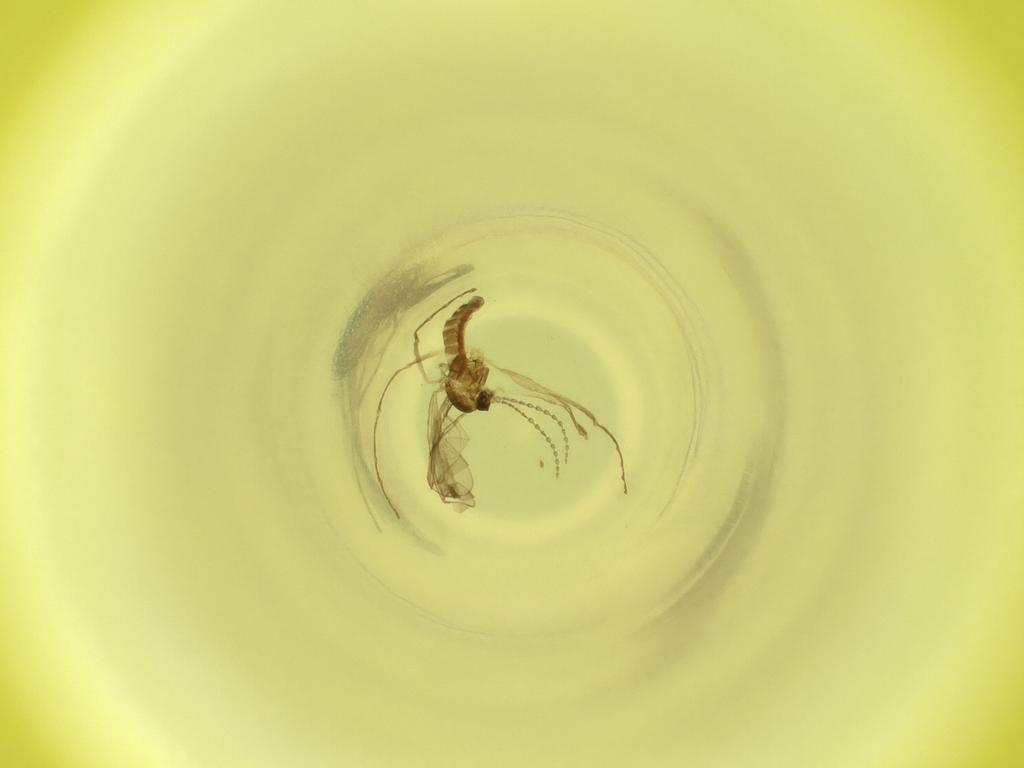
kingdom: Animalia
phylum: Arthropoda
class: Insecta
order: Diptera
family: Cecidomyiidae
